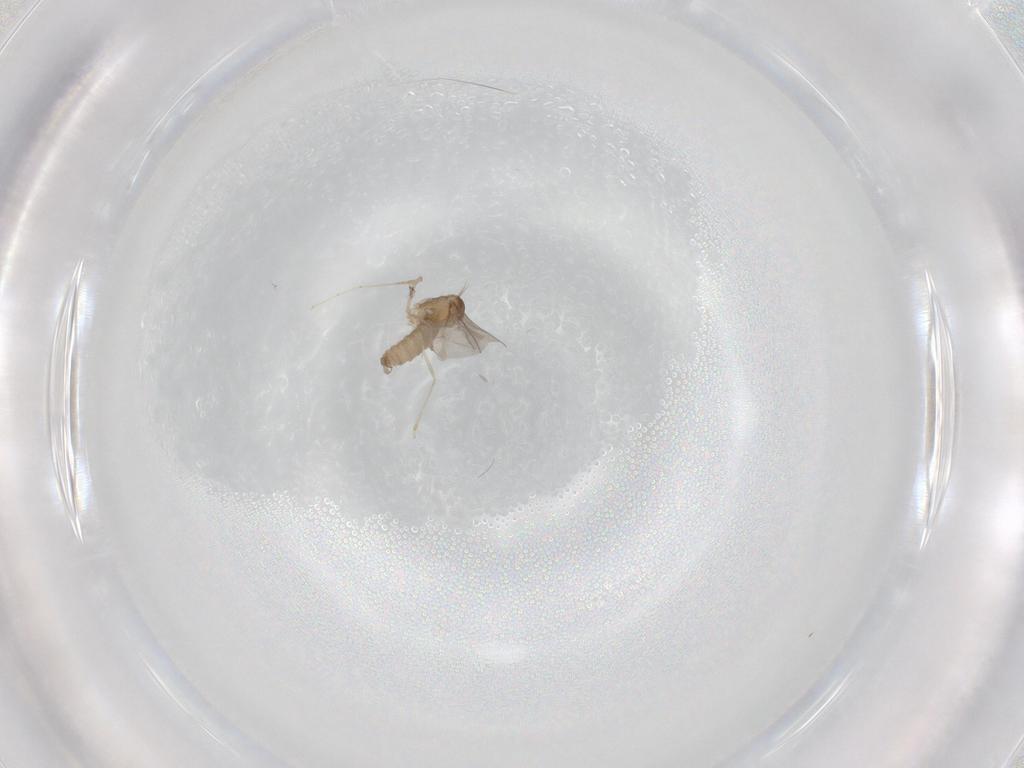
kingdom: Animalia
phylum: Arthropoda
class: Insecta
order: Diptera
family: Cecidomyiidae
